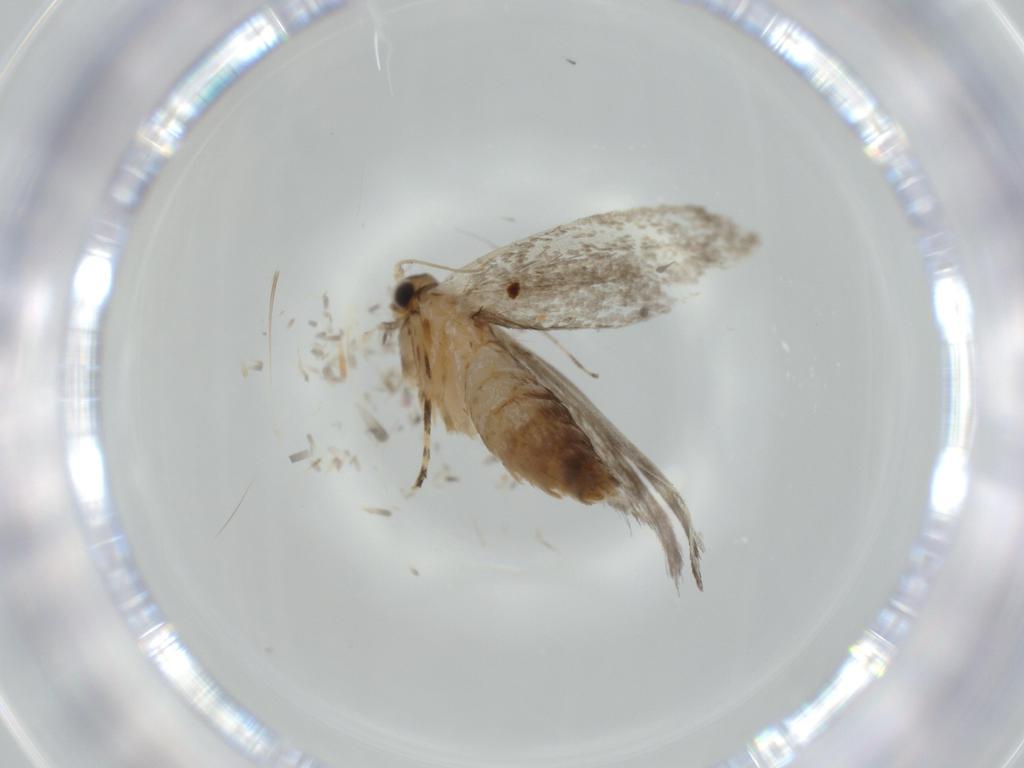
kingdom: Animalia
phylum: Arthropoda
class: Insecta
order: Lepidoptera
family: Tineidae
